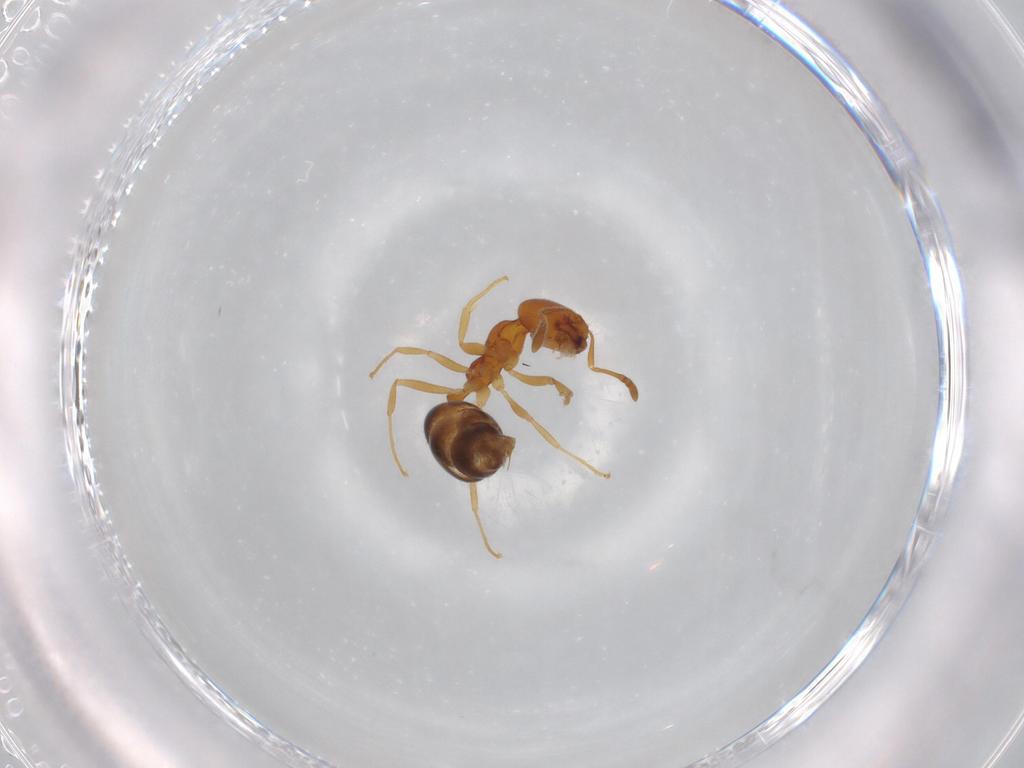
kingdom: Animalia
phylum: Arthropoda
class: Insecta
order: Hymenoptera
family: Formicidae
